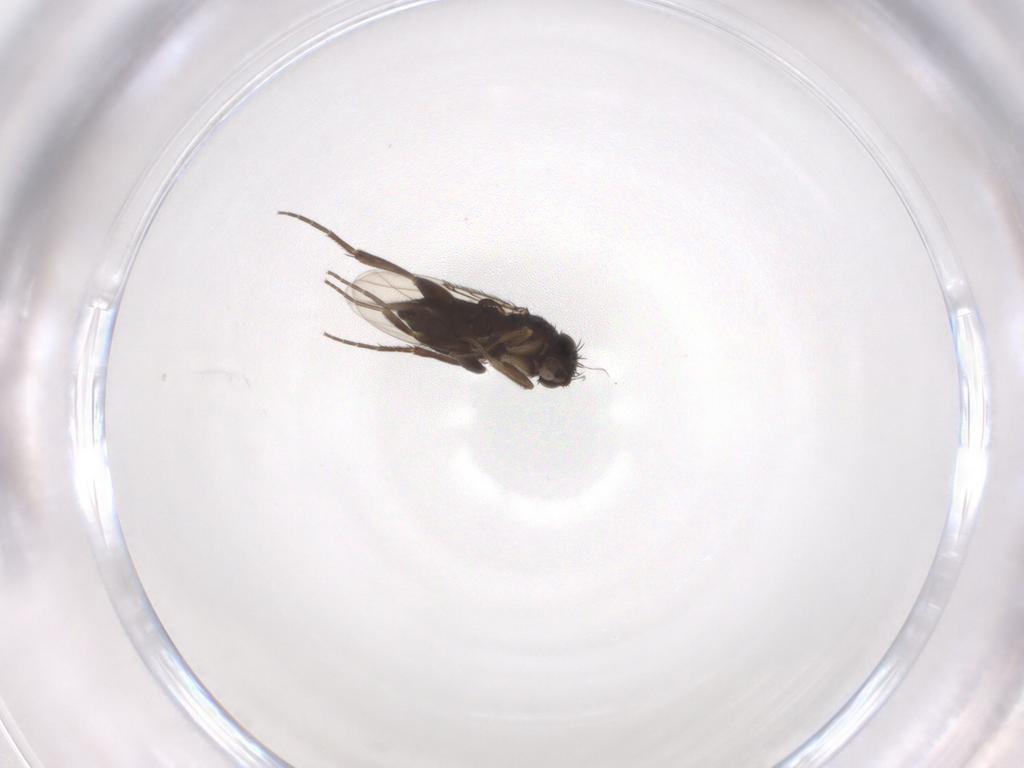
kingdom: Animalia
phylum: Arthropoda
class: Insecta
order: Diptera
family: Phoridae
